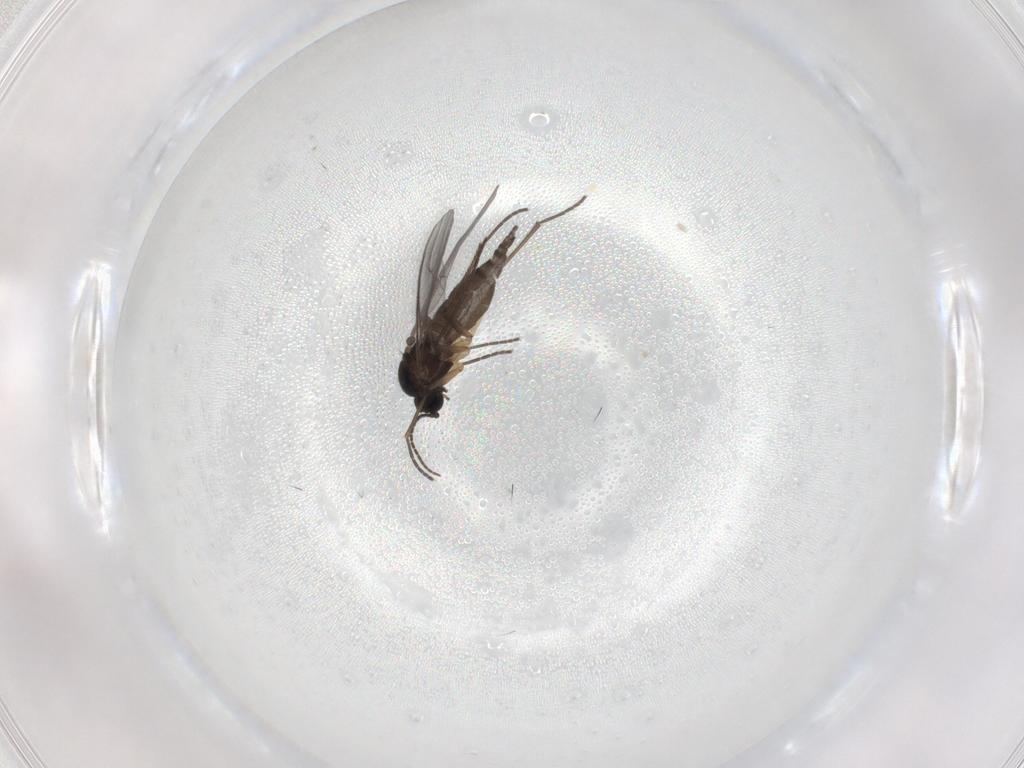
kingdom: Animalia
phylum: Arthropoda
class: Insecta
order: Diptera
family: Sciaridae
